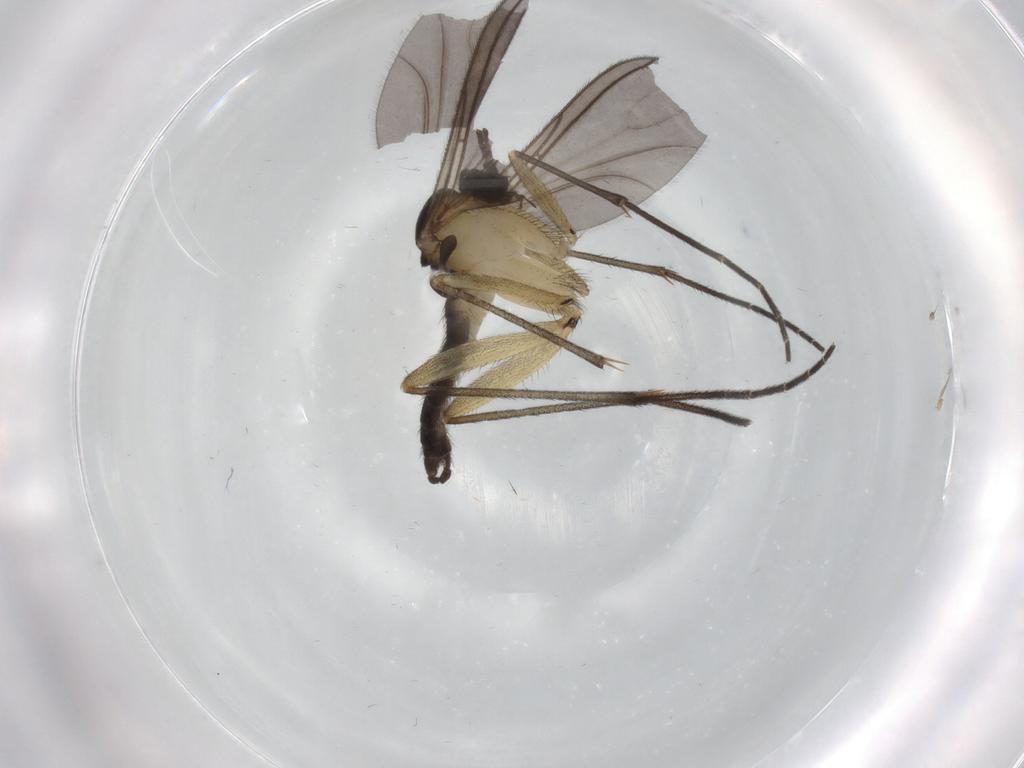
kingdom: Animalia
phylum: Arthropoda
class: Insecta
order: Diptera
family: Sciaridae
